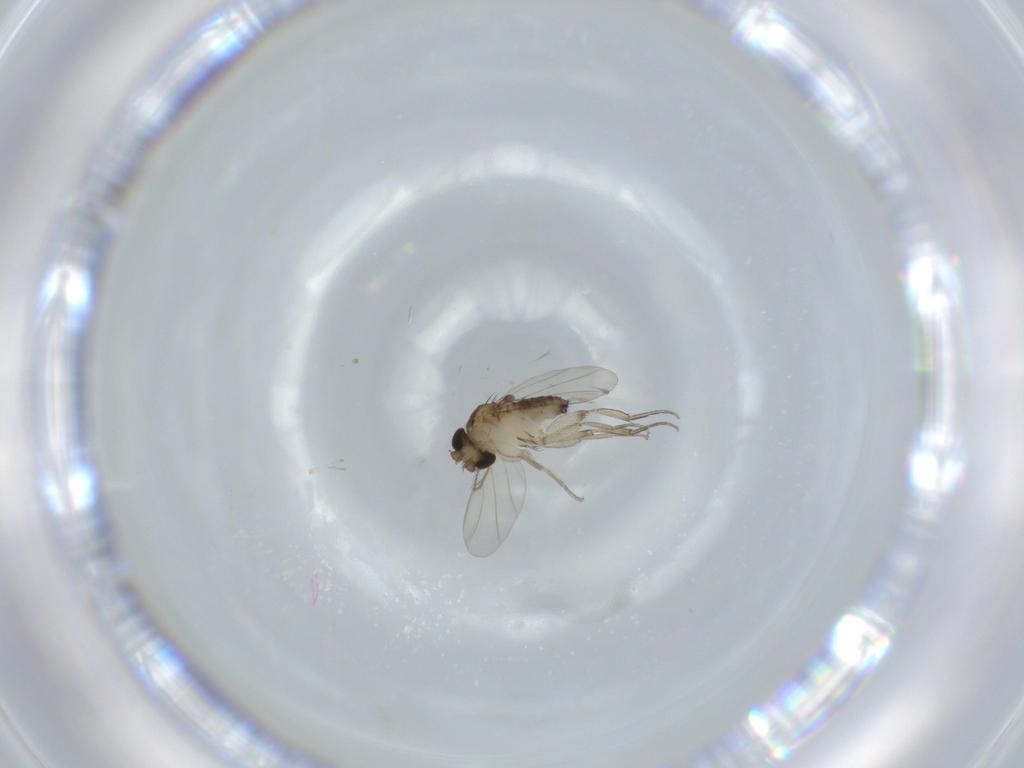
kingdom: Animalia
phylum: Arthropoda
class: Insecta
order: Diptera
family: Phoridae
